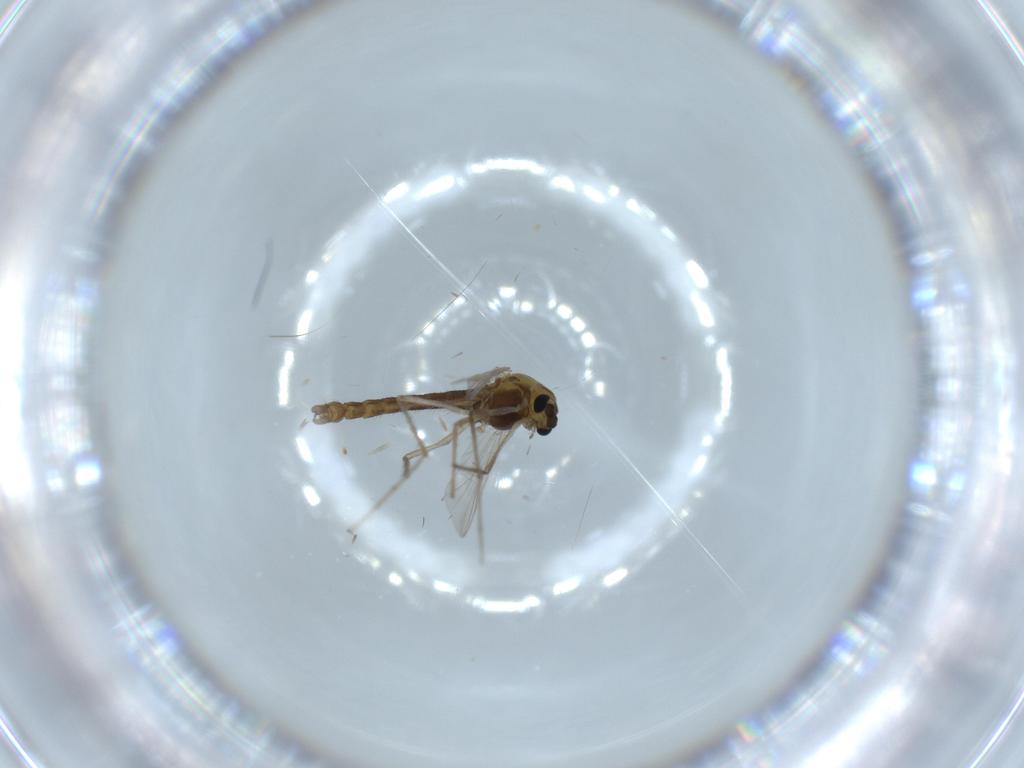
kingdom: Animalia
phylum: Arthropoda
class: Insecta
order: Diptera
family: Chironomidae
